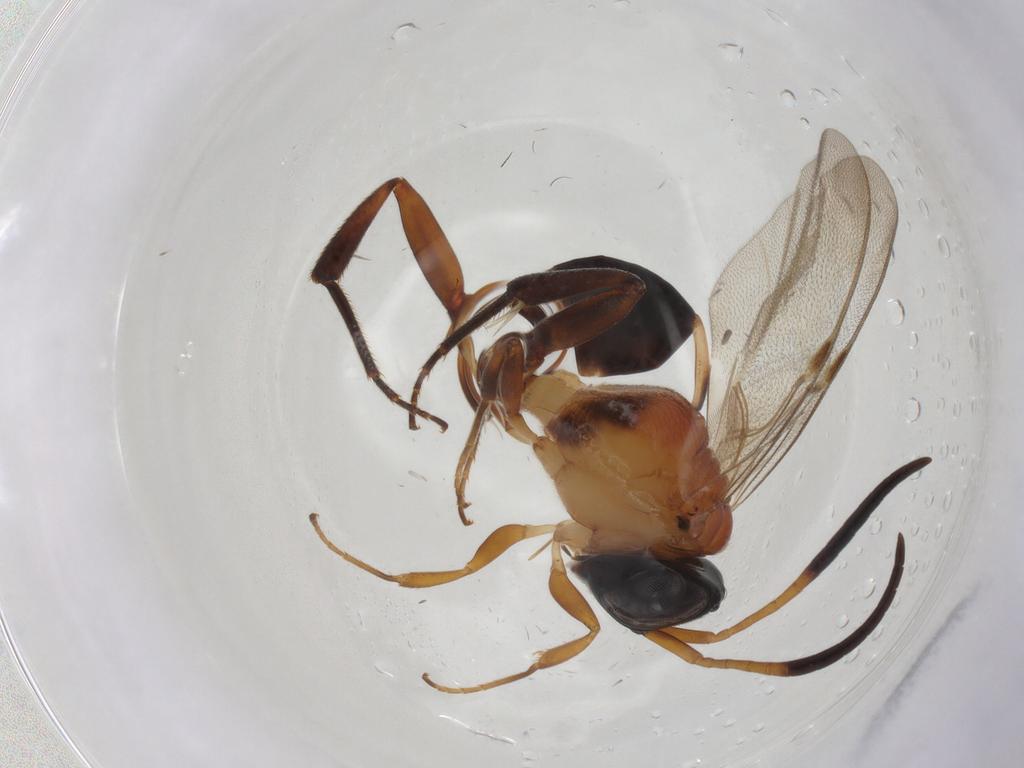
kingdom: Animalia
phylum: Arthropoda
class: Insecta
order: Hymenoptera
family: Evaniidae
